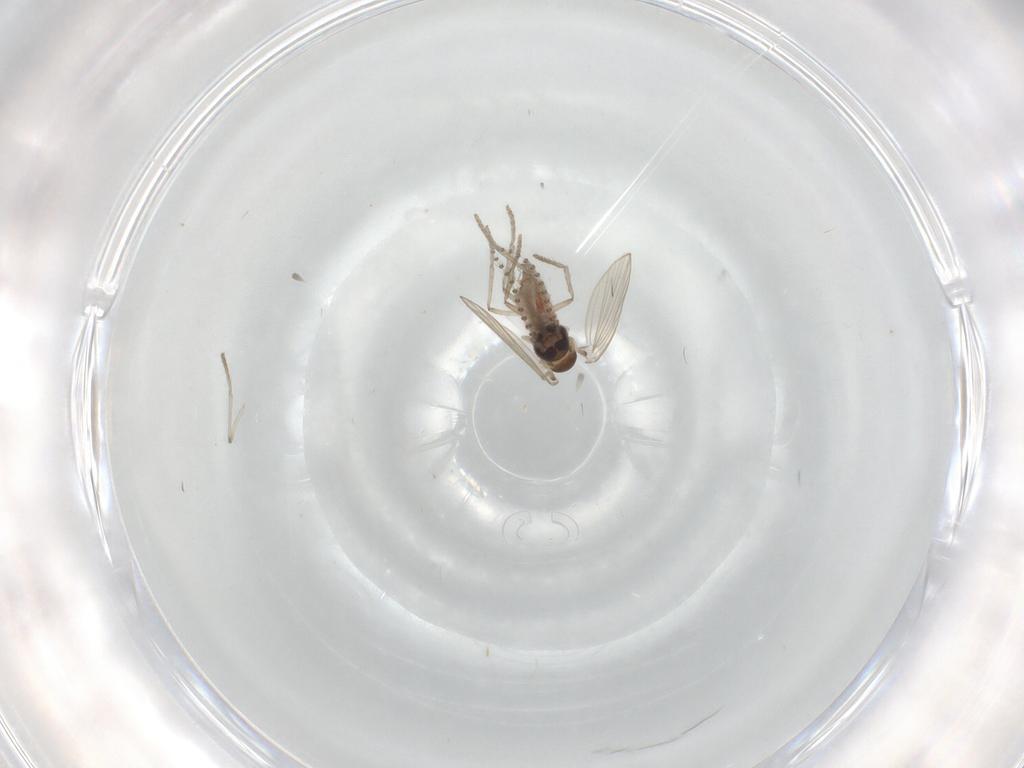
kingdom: Animalia
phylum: Arthropoda
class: Insecta
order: Diptera
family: Psychodidae
